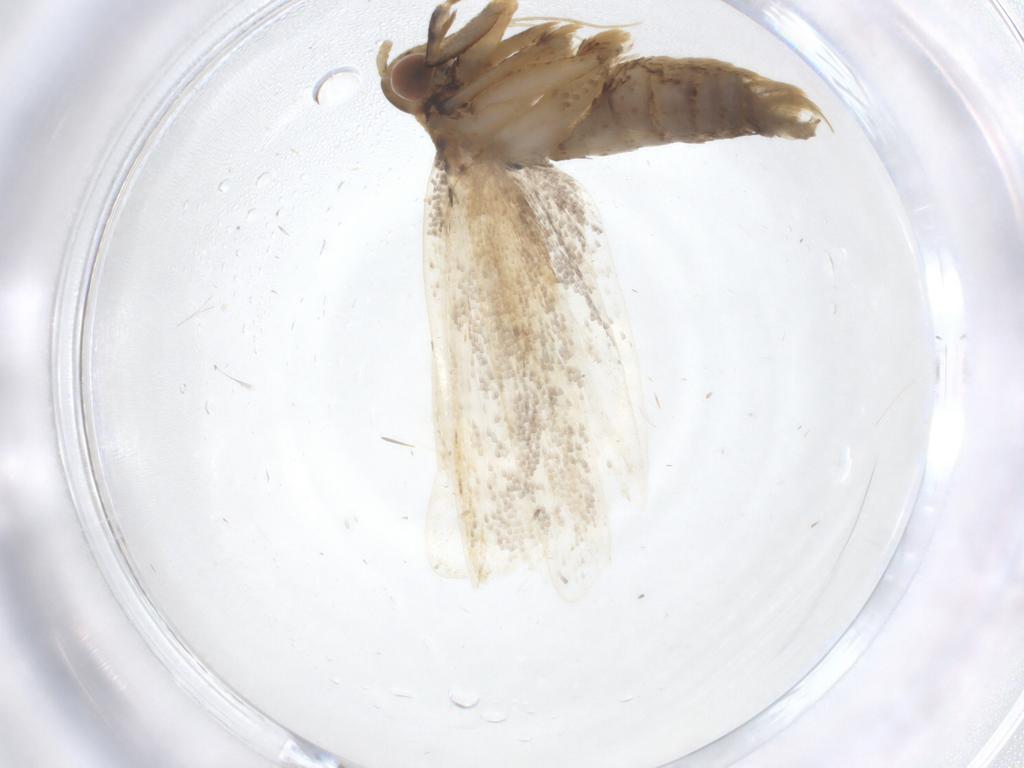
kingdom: Animalia
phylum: Arthropoda
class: Insecta
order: Lepidoptera
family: Lecithoceridae
